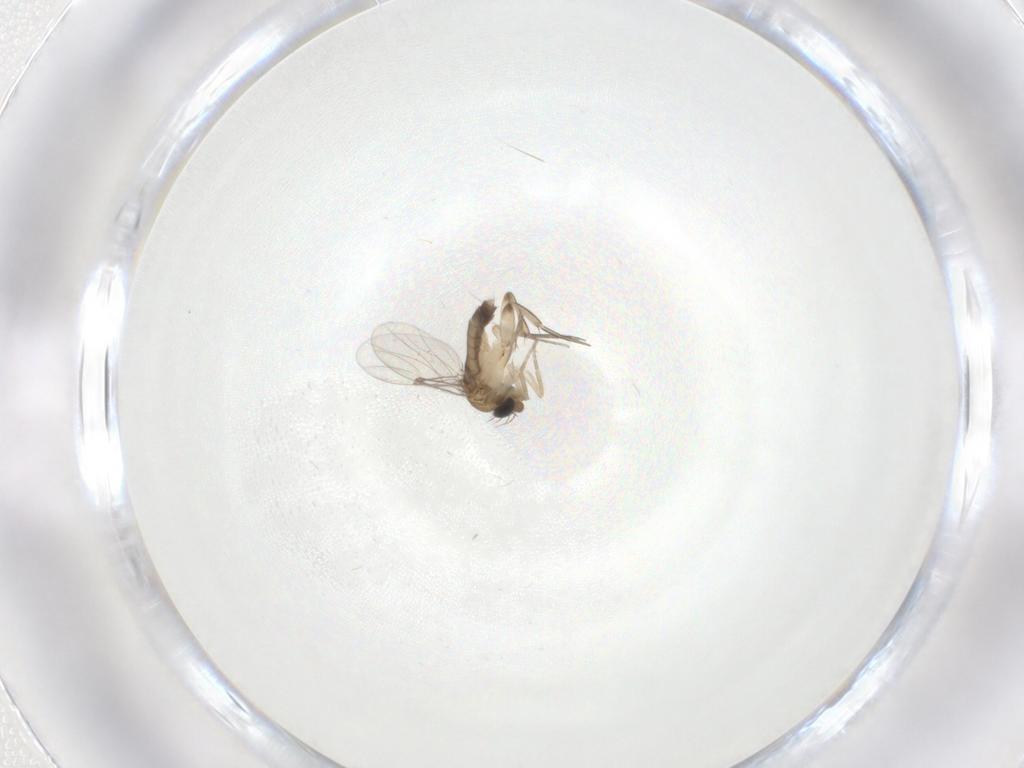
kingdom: Animalia
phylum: Arthropoda
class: Insecta
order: Diptera
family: Phoridae
